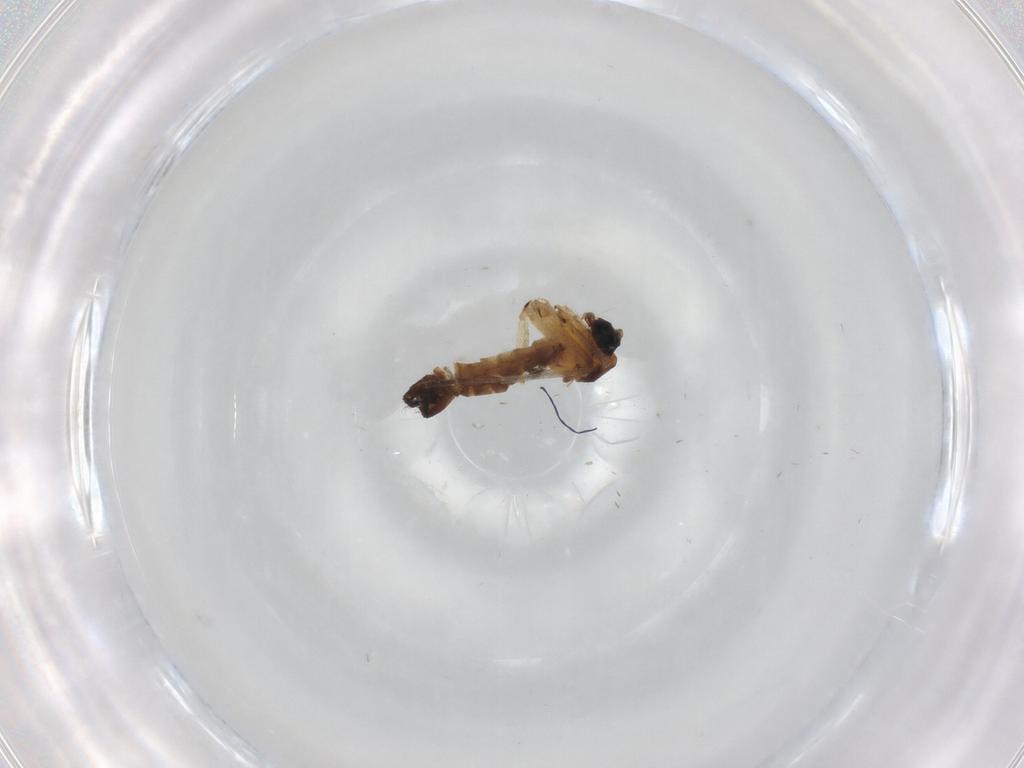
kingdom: Animalia
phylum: Arthropoda
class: Insecta
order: Diptera
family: Sciaridae
